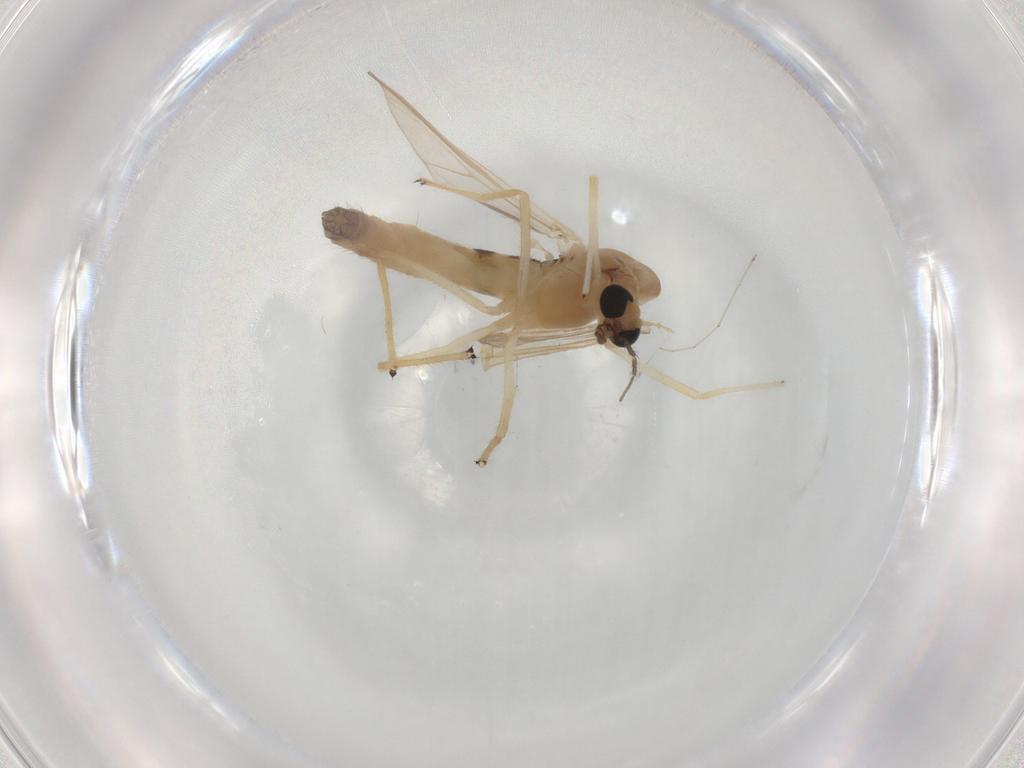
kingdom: Animalia
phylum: Arthropoda
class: Insecta
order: Diptera
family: Chironomidae
